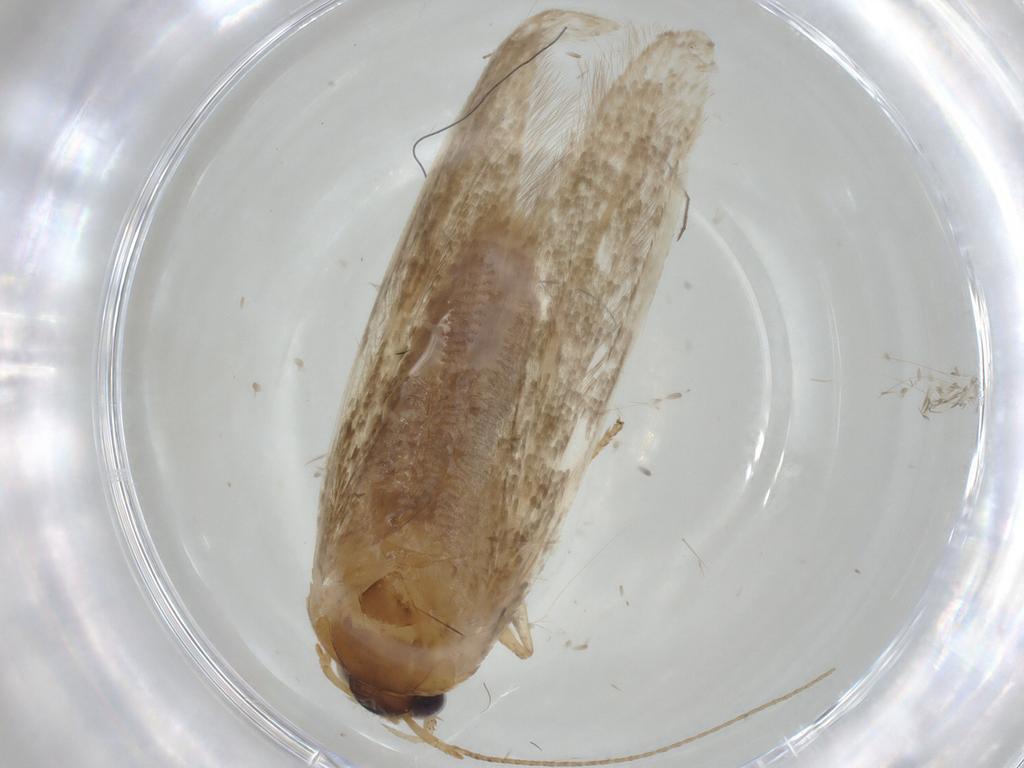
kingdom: Animalia
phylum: Arthropoda
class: Insecta
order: Lepidoptera
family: Blastobasidae
